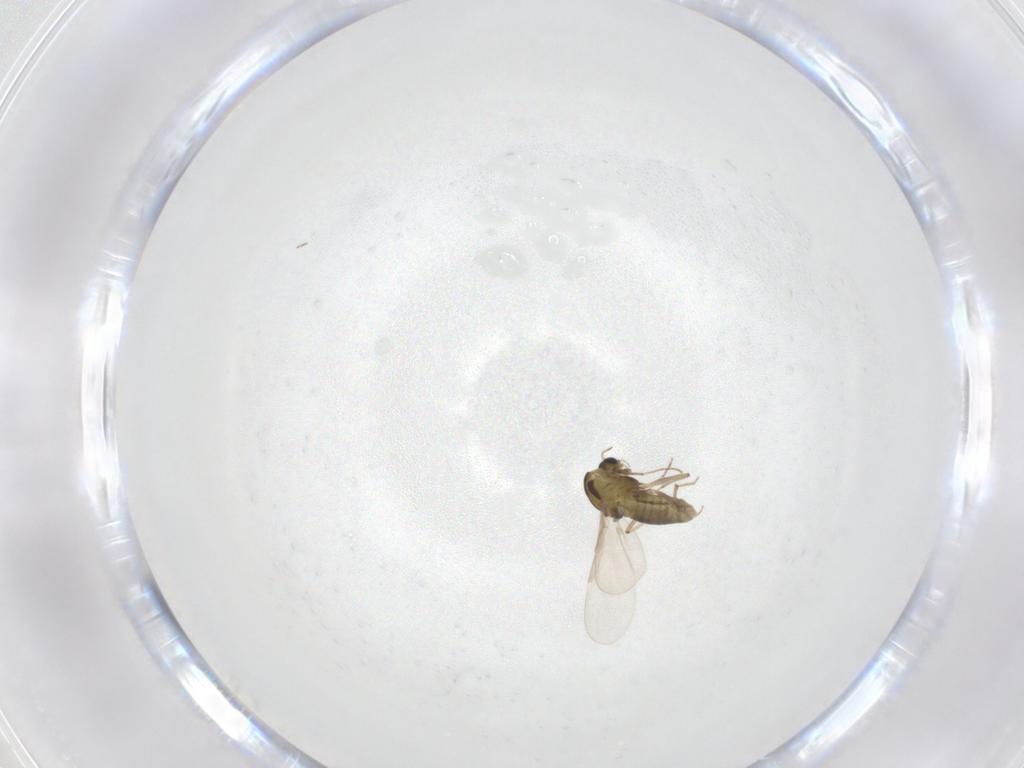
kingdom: Animalia
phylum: Arthropoda
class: Insecta
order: Diptera
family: Chironomidae
